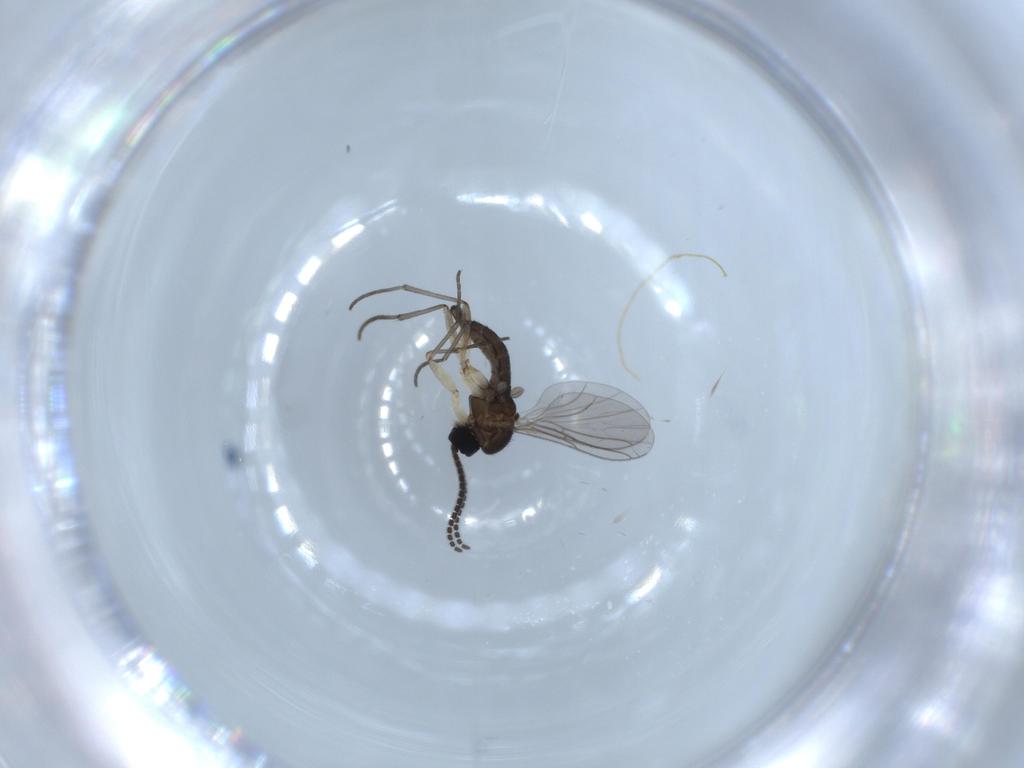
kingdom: Animalia
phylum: Arthropoda
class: Insecta
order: Diptera
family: Sciaridae
